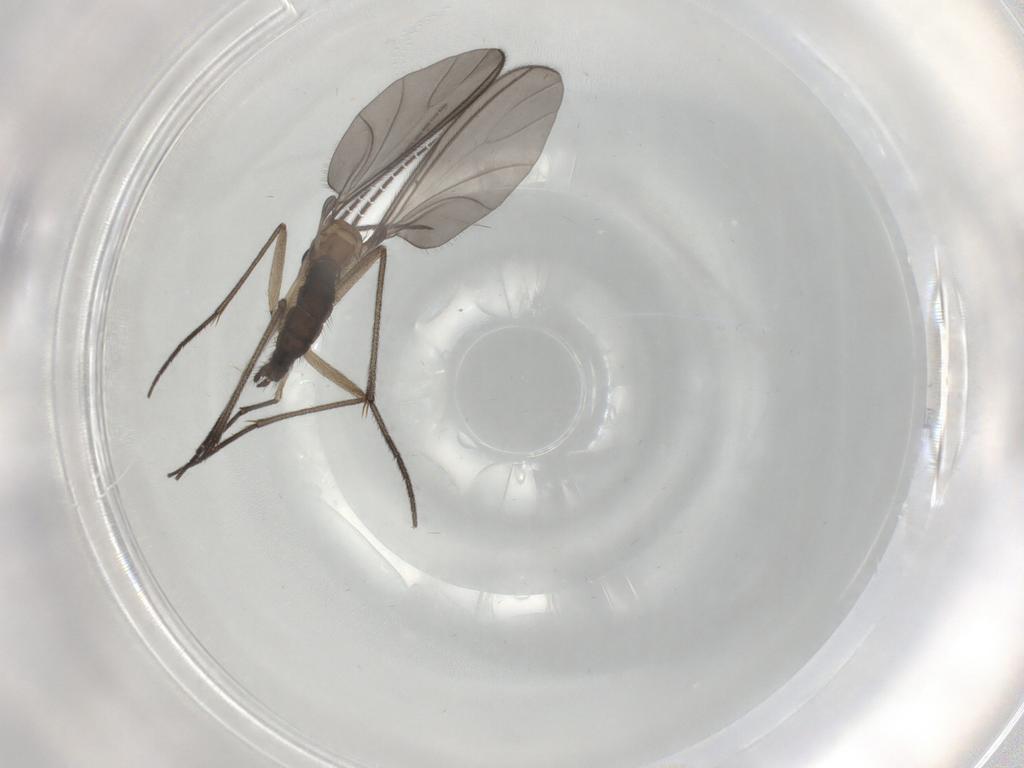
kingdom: Animalia
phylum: Arthropoda
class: Insecta
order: Diptera
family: Sciaridae
